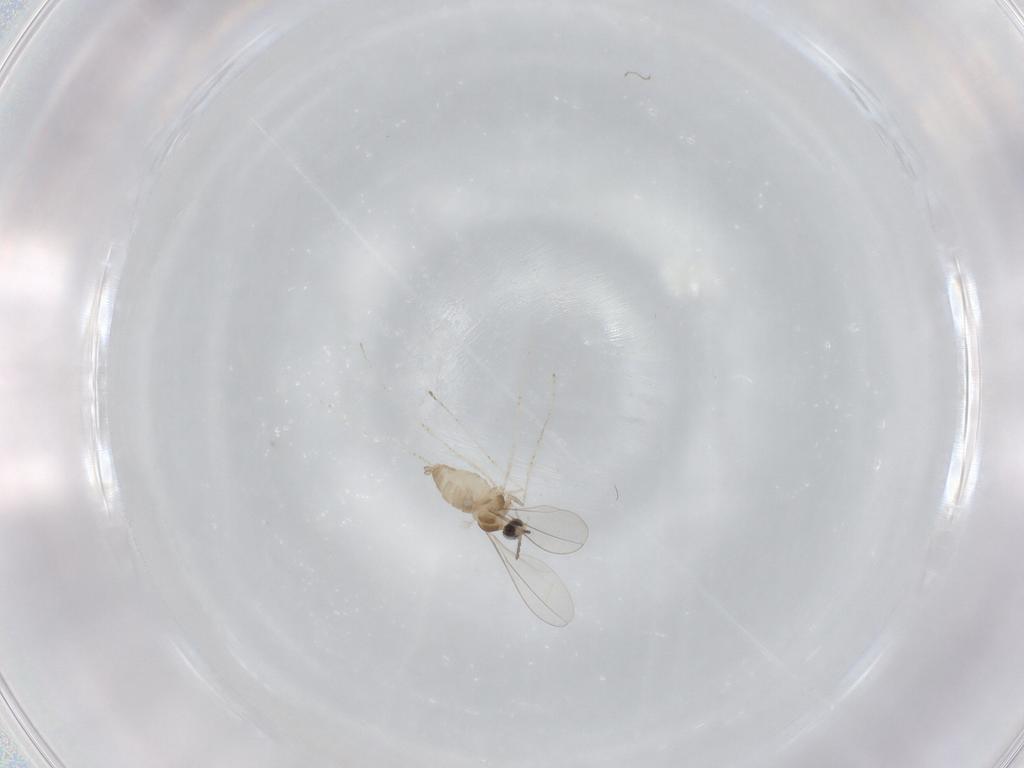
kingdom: Animalia
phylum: Arthropoda
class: Insecta
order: Diptera
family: Cecidomyiidae
